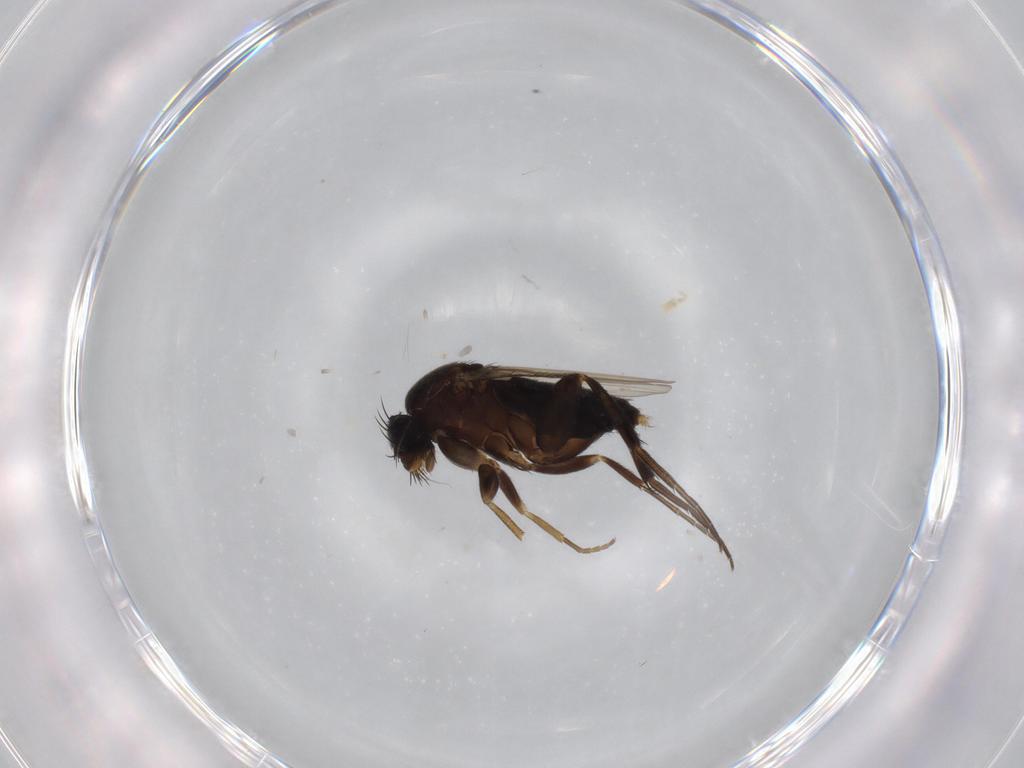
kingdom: Animalia
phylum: Arthropoda
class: Insecta
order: Diptera
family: Phoridae
